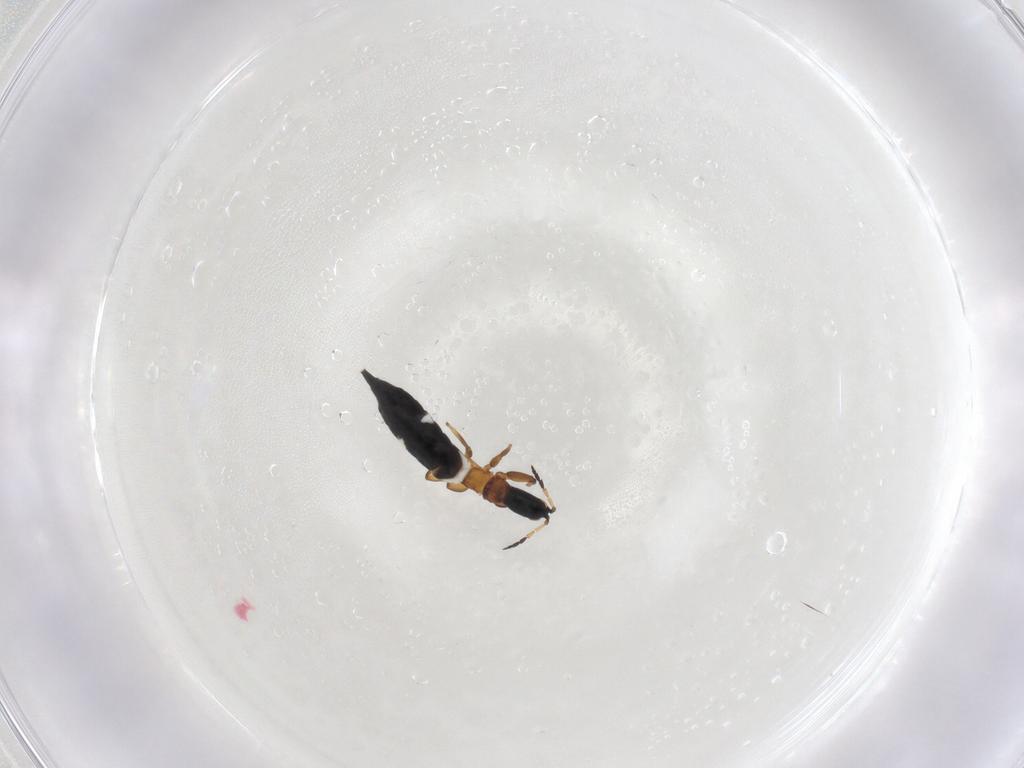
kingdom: Animalia
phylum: Arthropoda
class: Insecta
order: Thysanoptera
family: Phlaeothripidae
